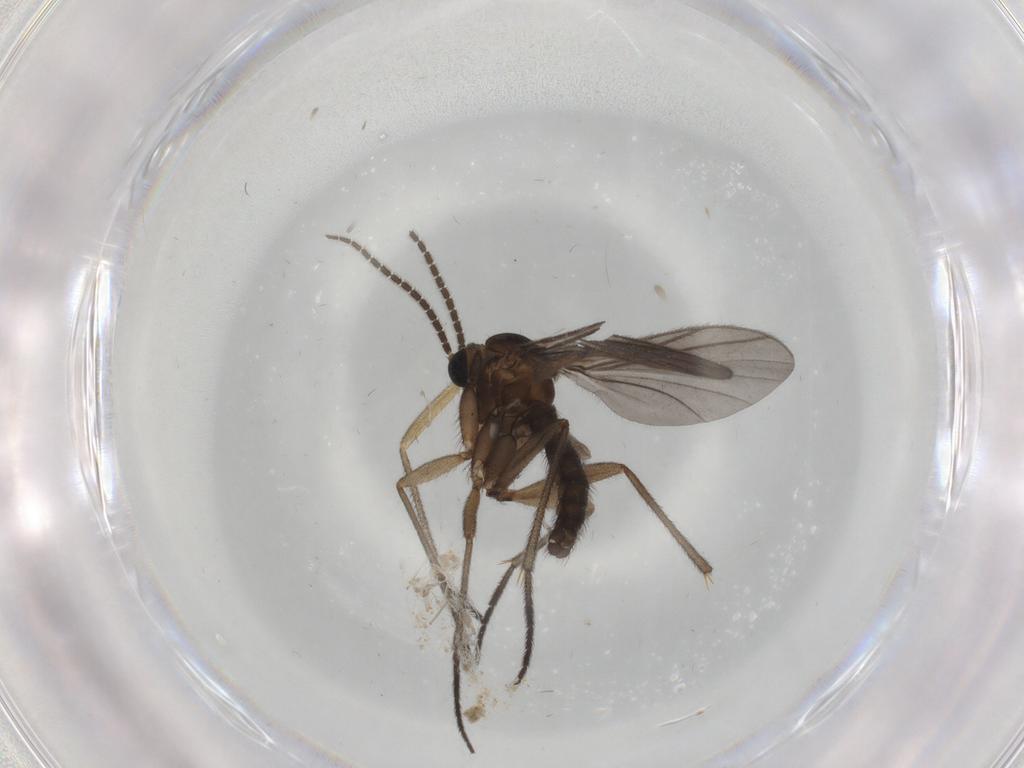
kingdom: Animalia
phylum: Arthropoda
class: Insecta
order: Diptera
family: Sciaridae
